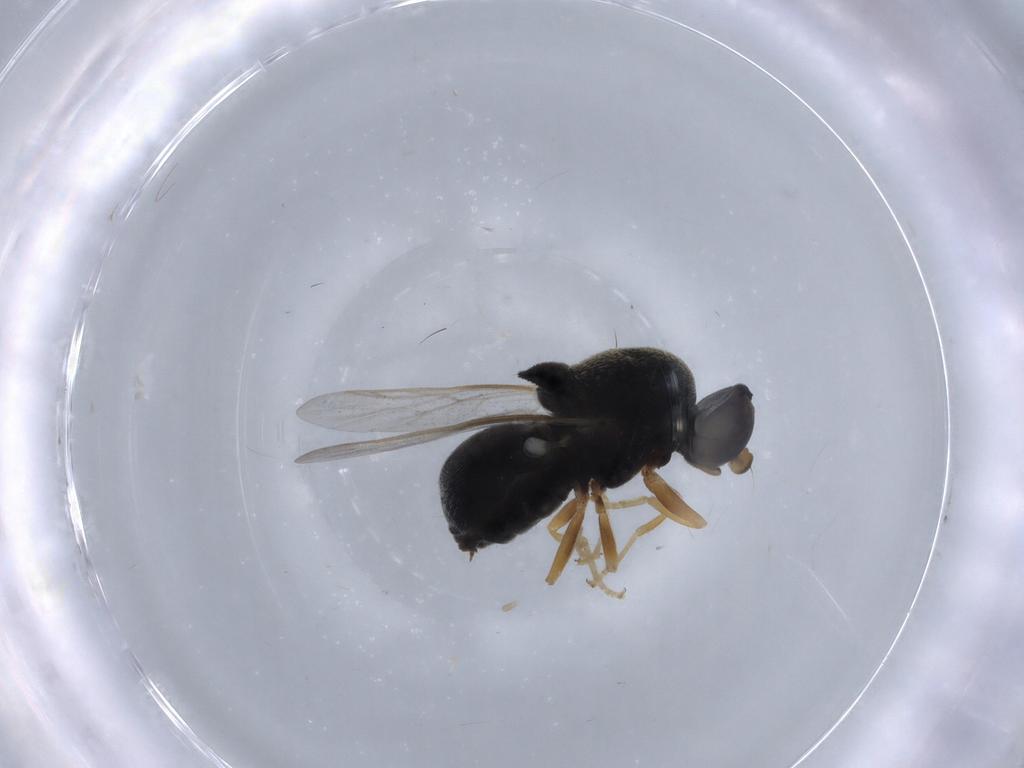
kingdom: Animalia
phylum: Arthropoda
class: Insecta
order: Diptera
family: Stratiomyidae
